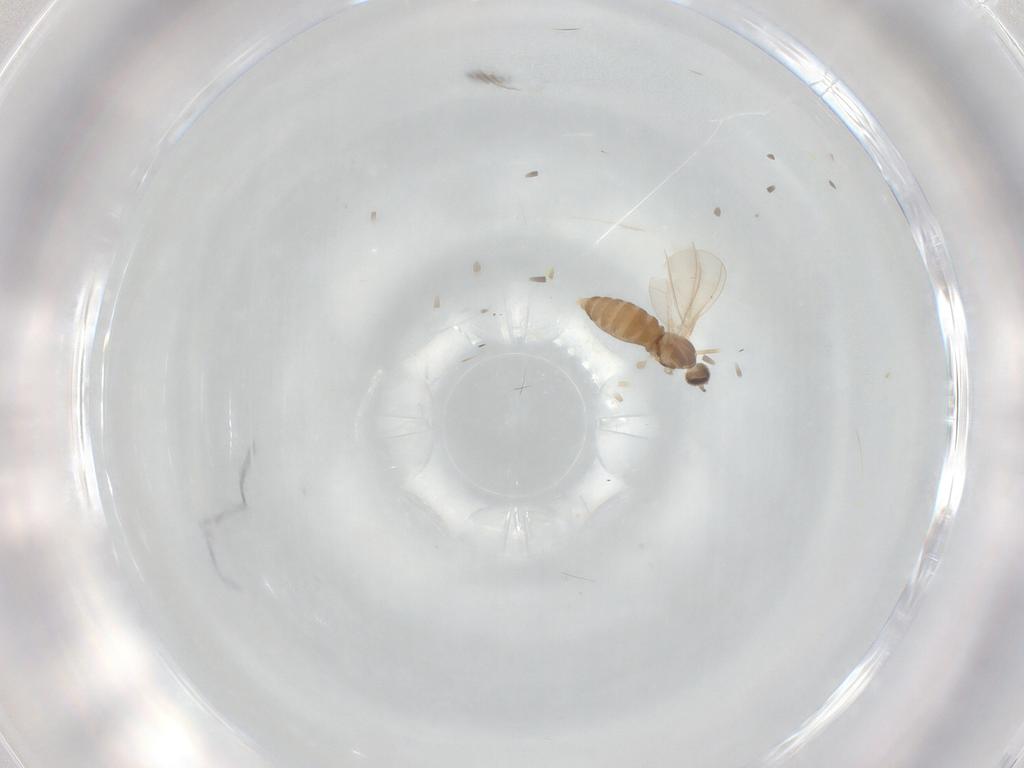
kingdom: Animalia
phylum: Arthropoda
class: Insecta
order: Diptera
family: Cecidomyiidae
